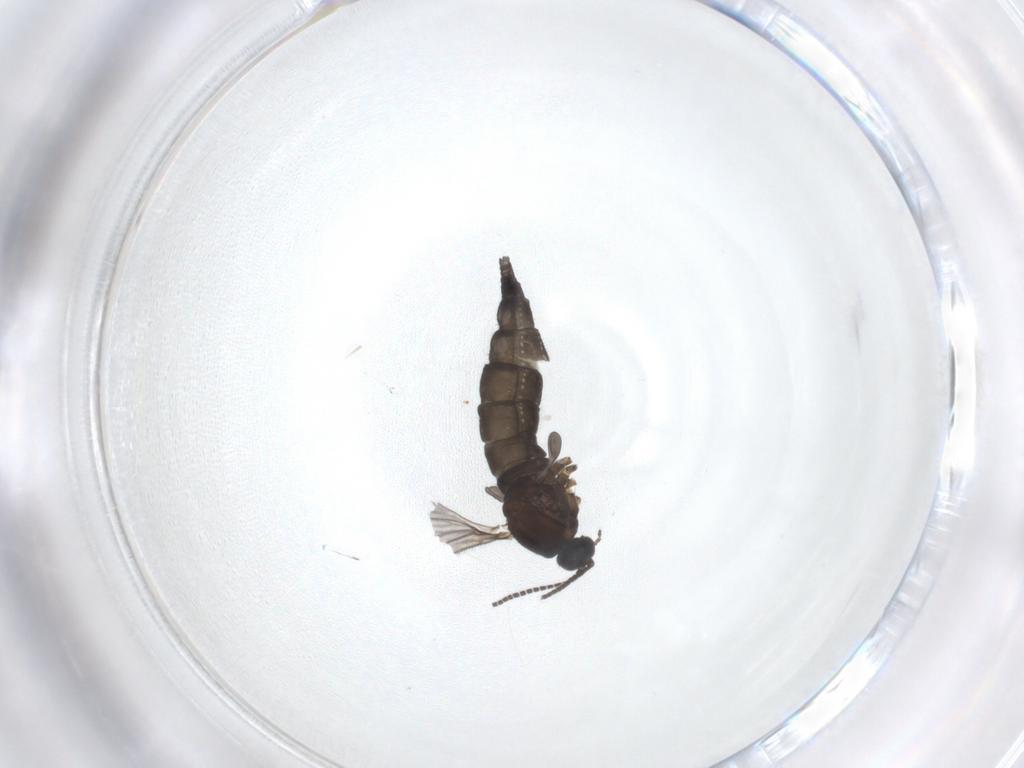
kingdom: Animalia
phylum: Arthropoda
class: Insecta
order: Diptera
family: Sciaridae
